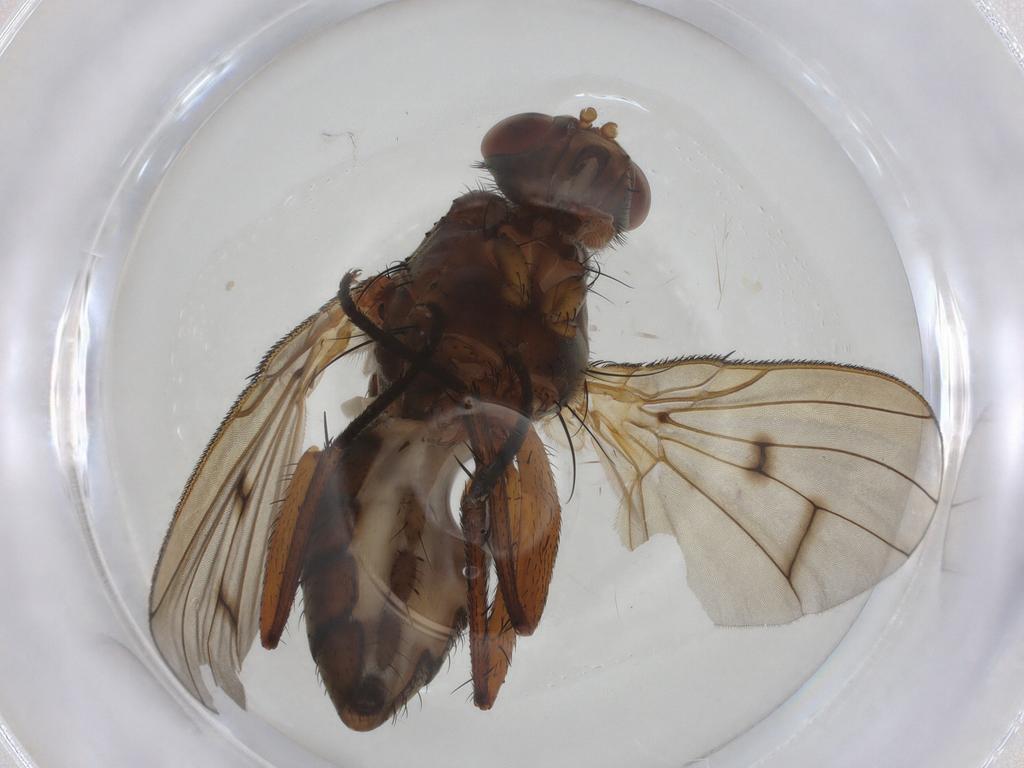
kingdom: Animalia
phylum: Arthropoda
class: Insecta
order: Diptera
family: Anthomyiidae
